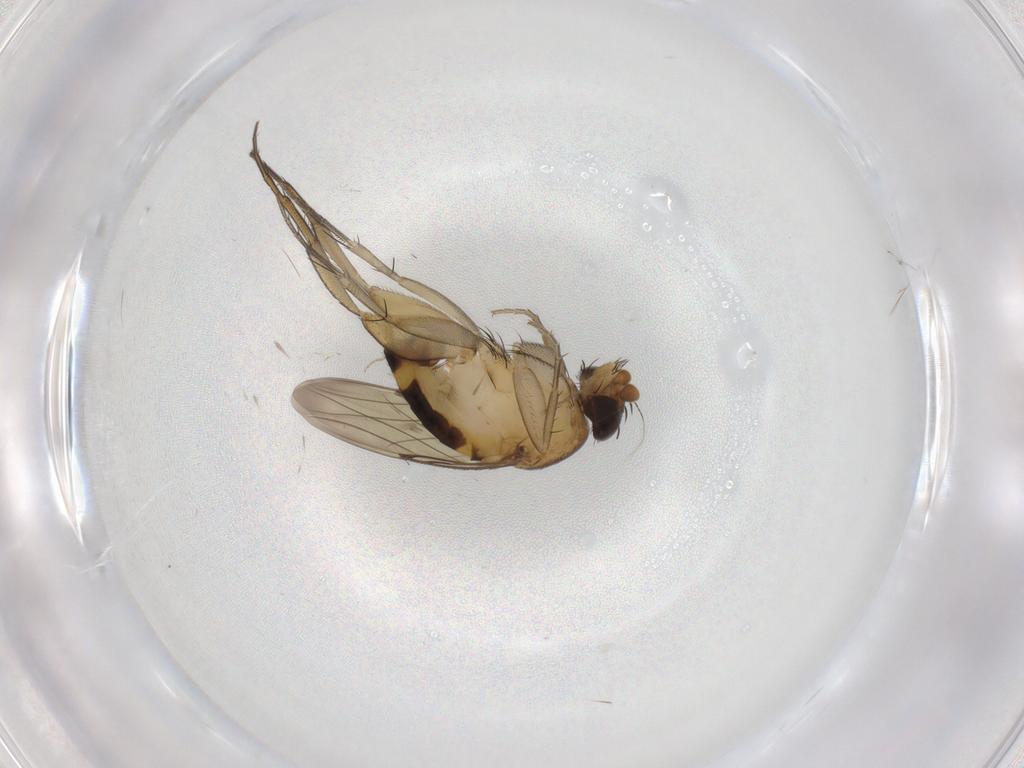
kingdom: Animalia
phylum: Arthropoda
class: Insecta
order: Diptera
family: Phoridae
